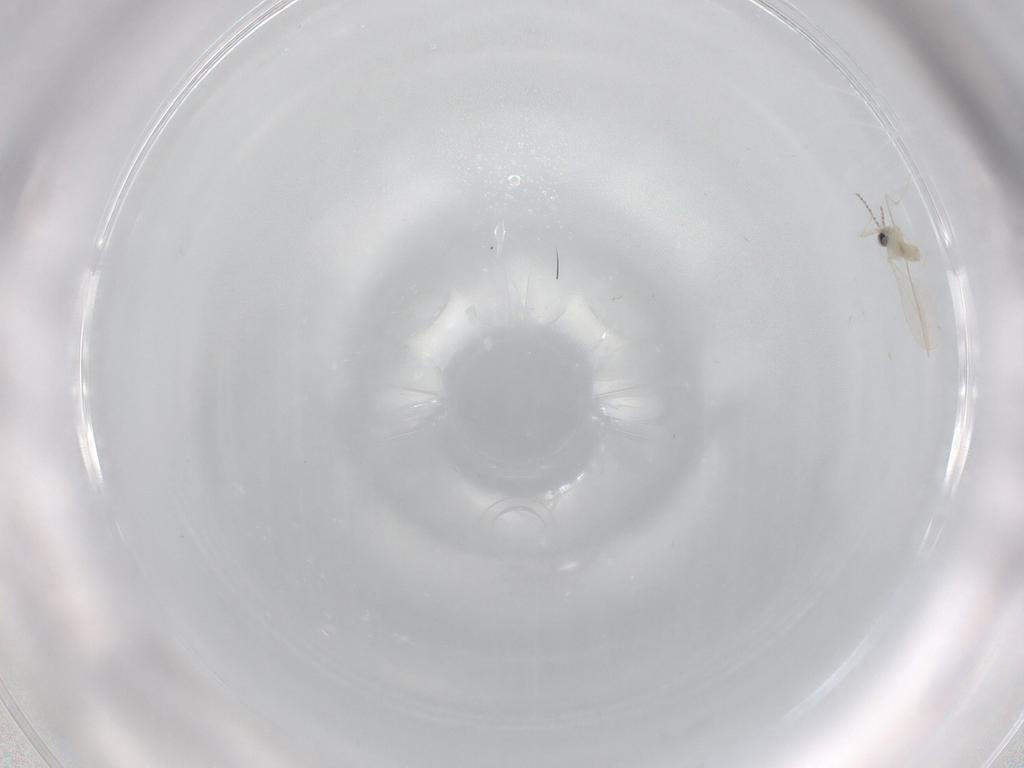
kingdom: Animalia
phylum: Arthropoda
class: Insecta
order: Diptera
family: Cecidomyiidae
